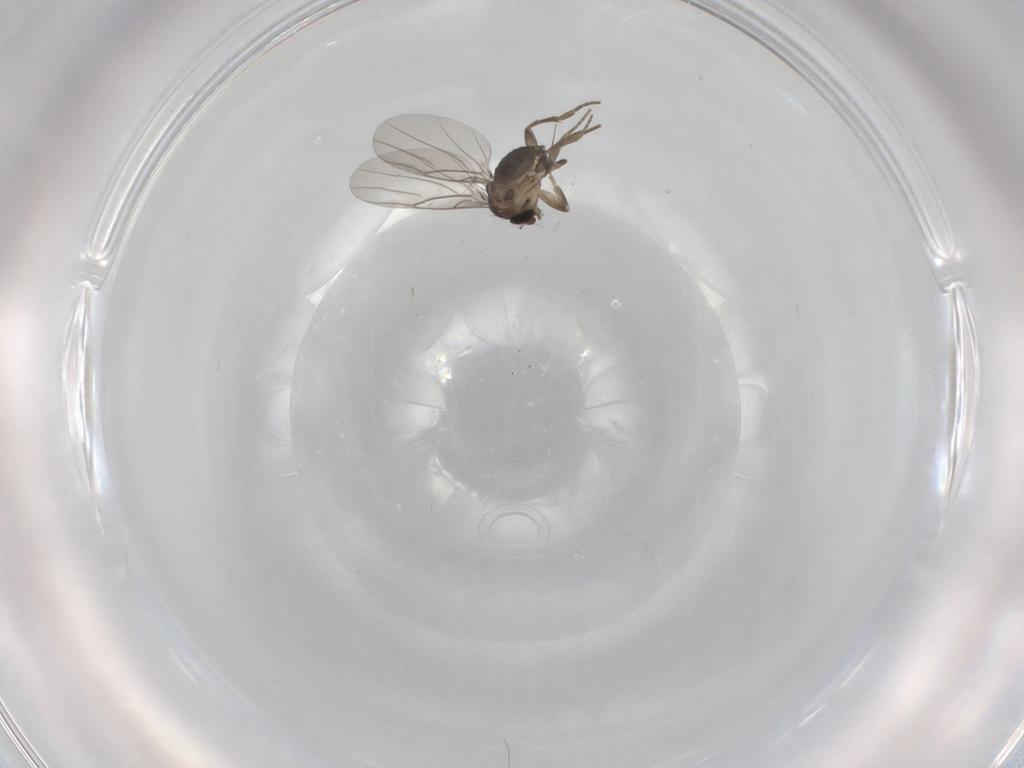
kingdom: Animalia
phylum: Arthropoda
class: Insecta
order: Diptera
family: Chironomidae
